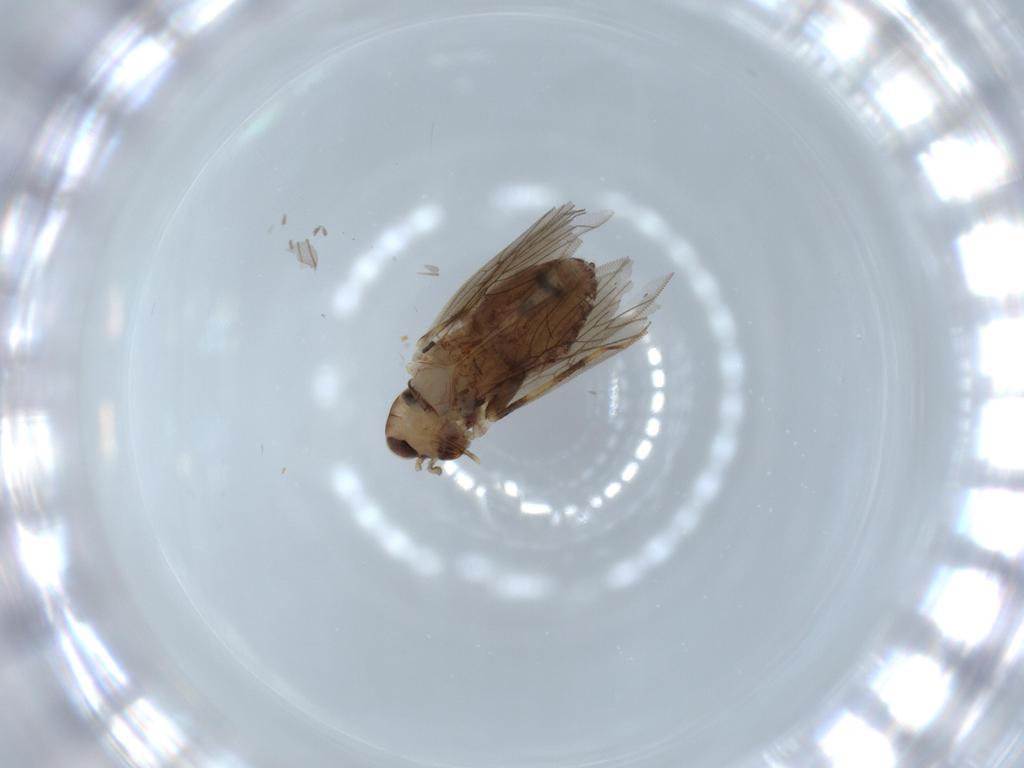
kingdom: Animalia
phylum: Arthropoda
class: Insecta
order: Psocodea
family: Lepidopsocidae
